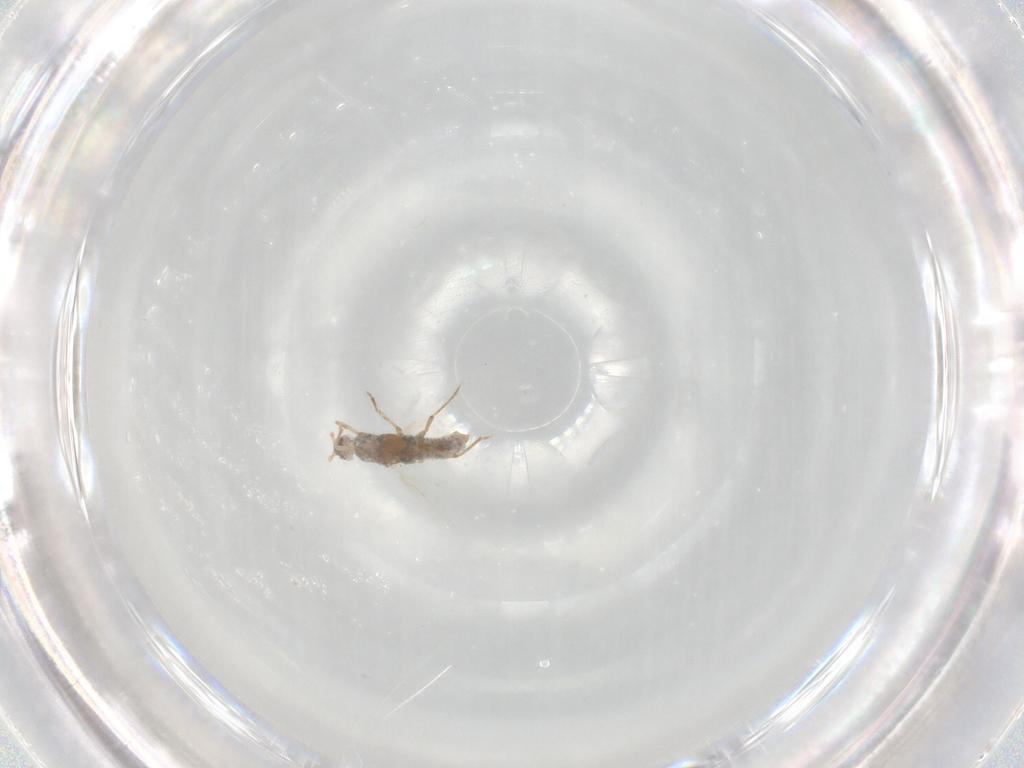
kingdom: Animalia
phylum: Arthropoda
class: Insecta
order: Hemiptera
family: Pseudococcidae
